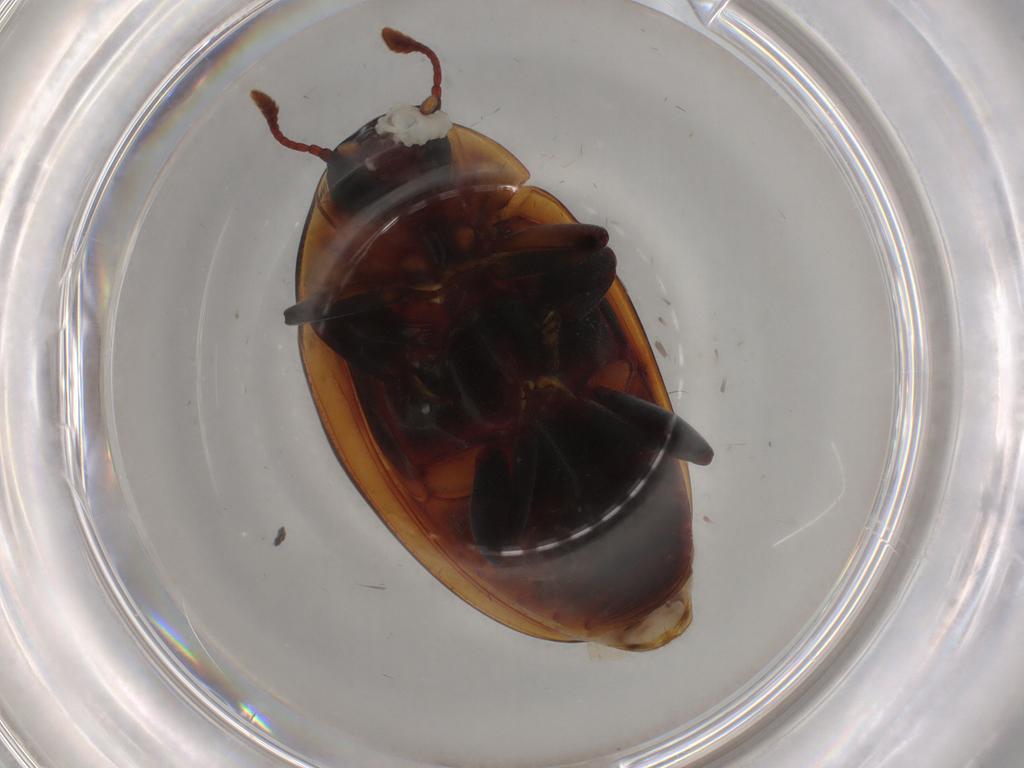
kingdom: Animalia
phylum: Arthropoda
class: Insecta
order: Coleoptera
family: Zopheridae
